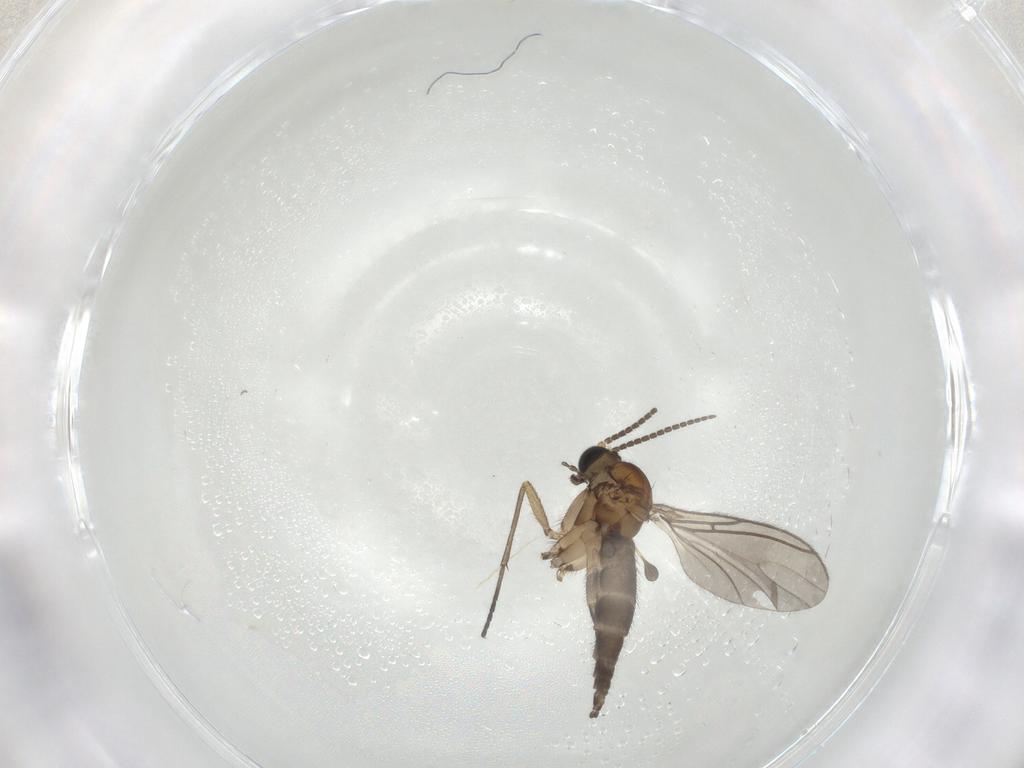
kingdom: Animalia
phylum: Arthropoda
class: Insecta
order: Diptera
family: Sciaridae
